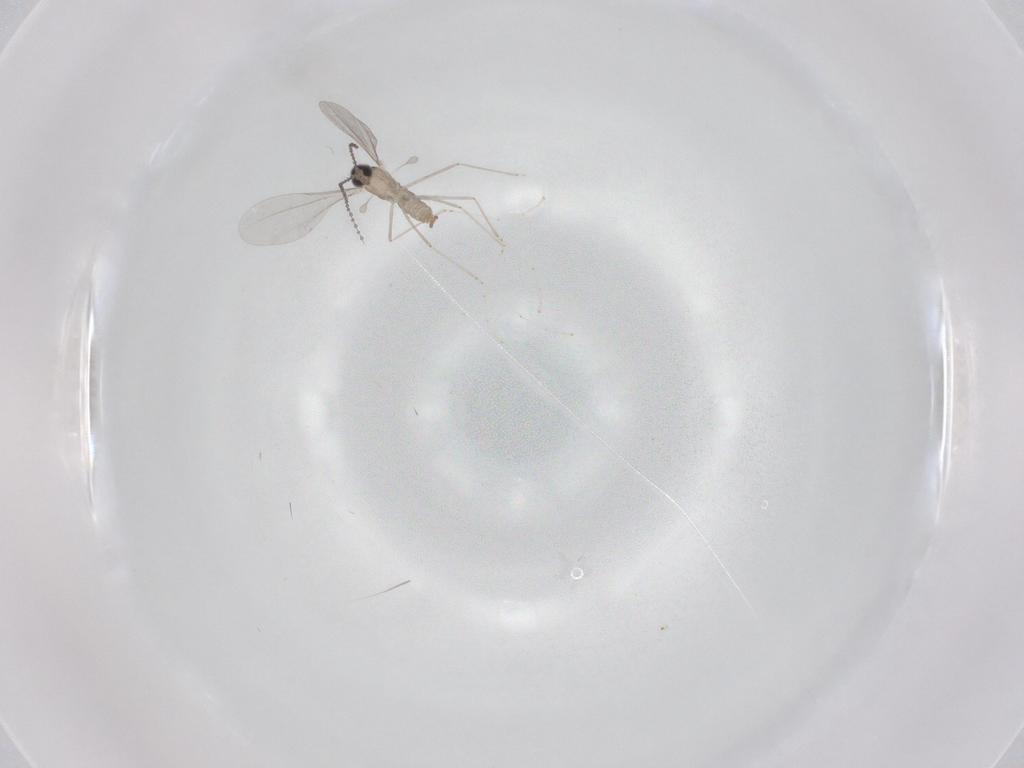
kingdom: Animalia
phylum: Arthropoda
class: Insecta
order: Diptera
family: Cecidomyiidae
